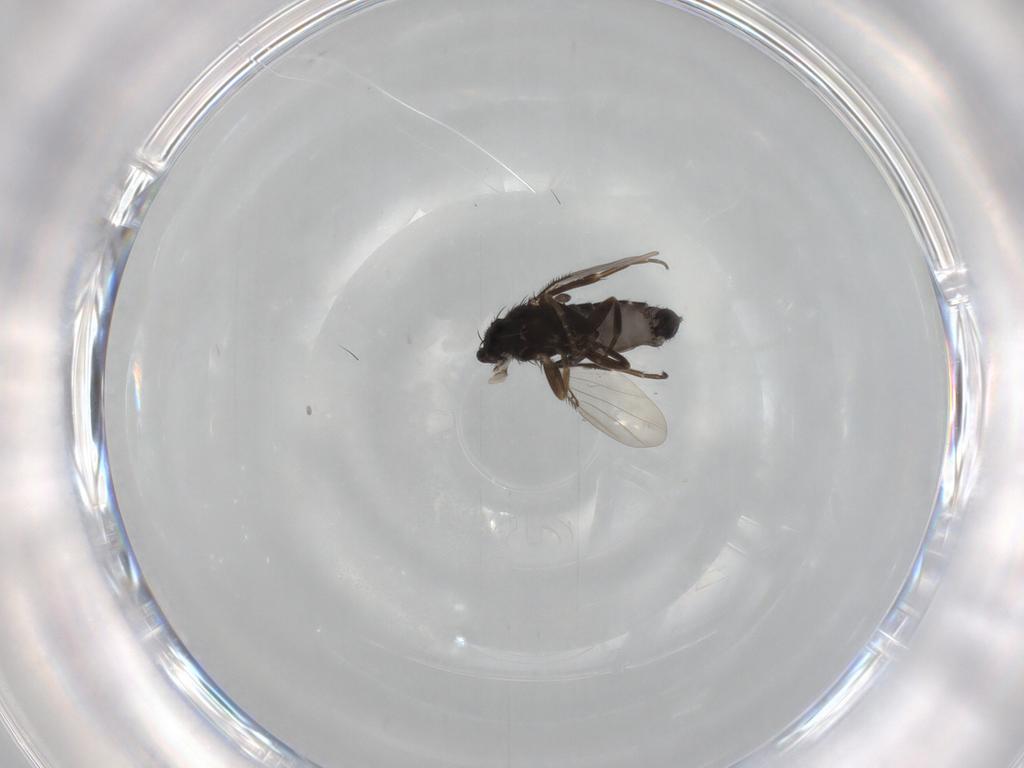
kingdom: Animalia
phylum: Arthropoda
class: Insecta
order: Diptera
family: Phoridae
